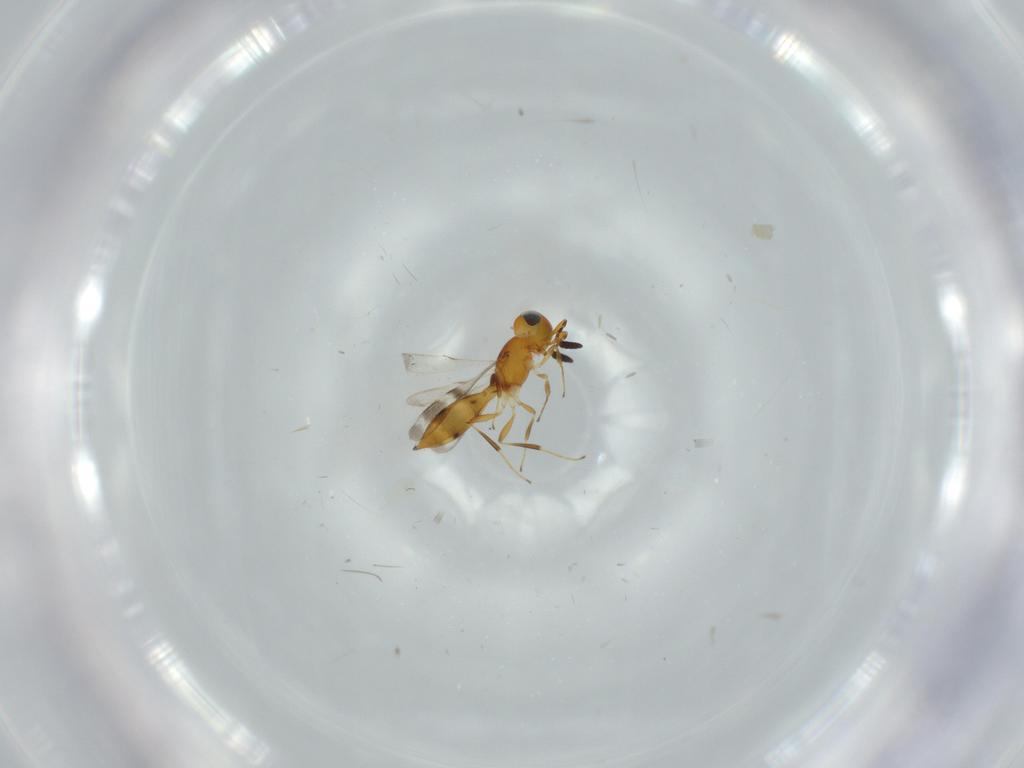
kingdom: Animalia
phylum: Arthropoda
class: Insecta
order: Hymenoptera
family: Scelionidae
